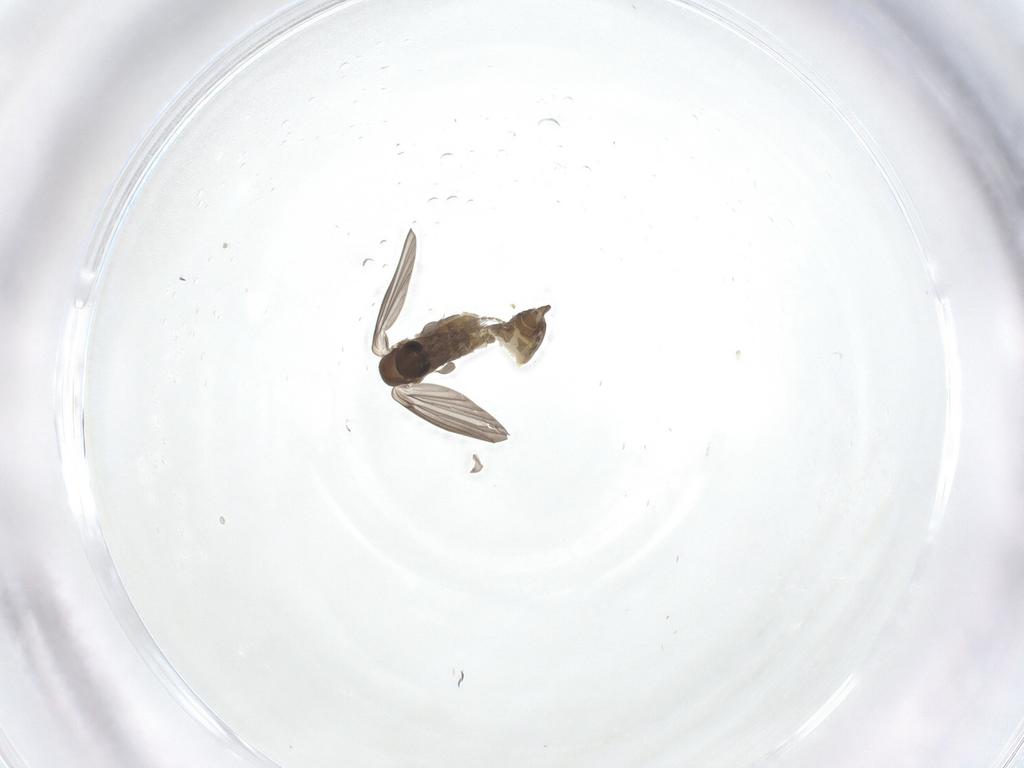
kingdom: Animalia
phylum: Arthropoda
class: Insecta
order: Diptera
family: Psychodidae
